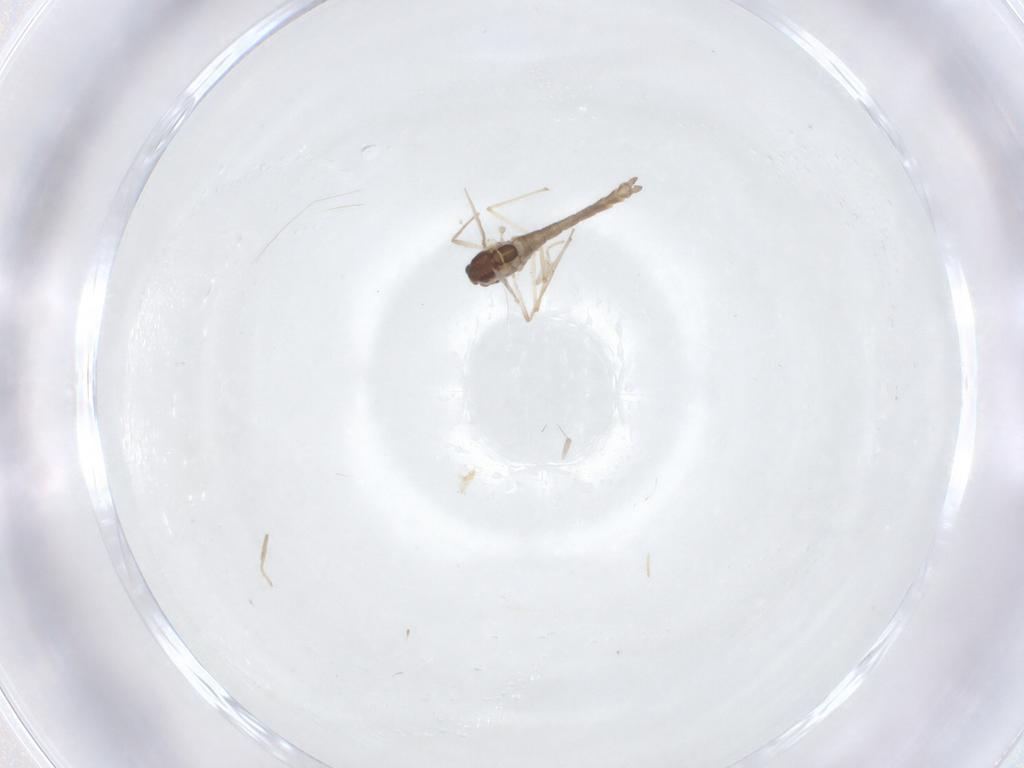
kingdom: Animalia
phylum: Arthropoda
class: Insecta
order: Diptera
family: Cecidomyiidae
